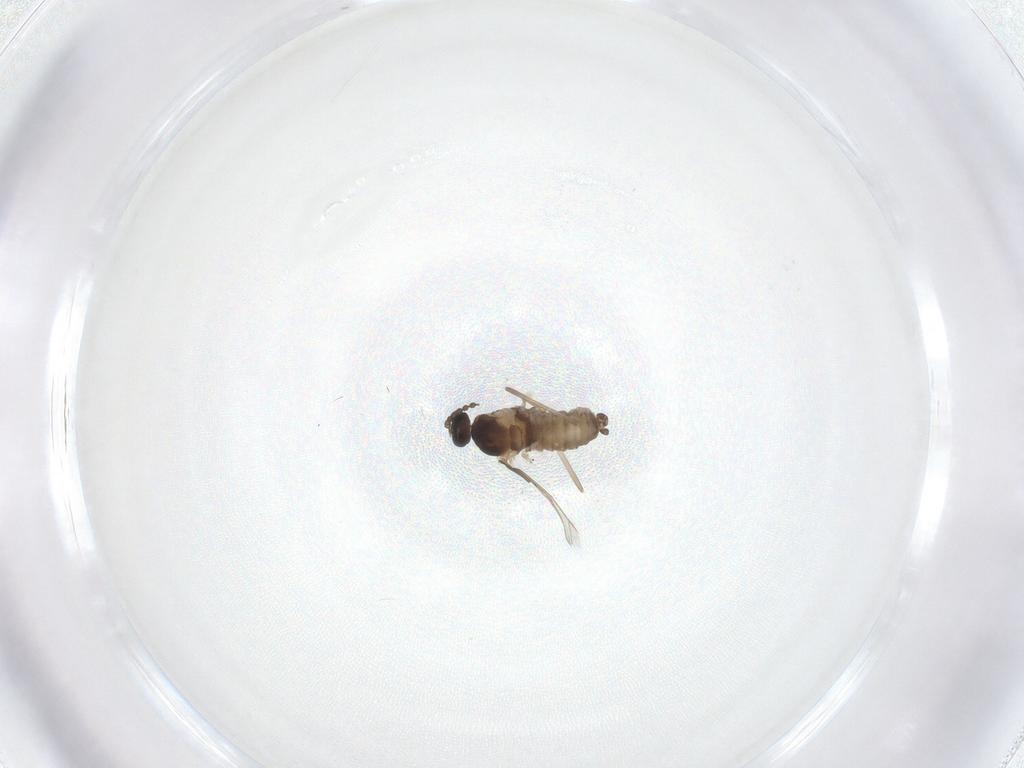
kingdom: Animalia
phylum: Arthropoda
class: Insecta
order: Diptera
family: Cecidomyiidae
